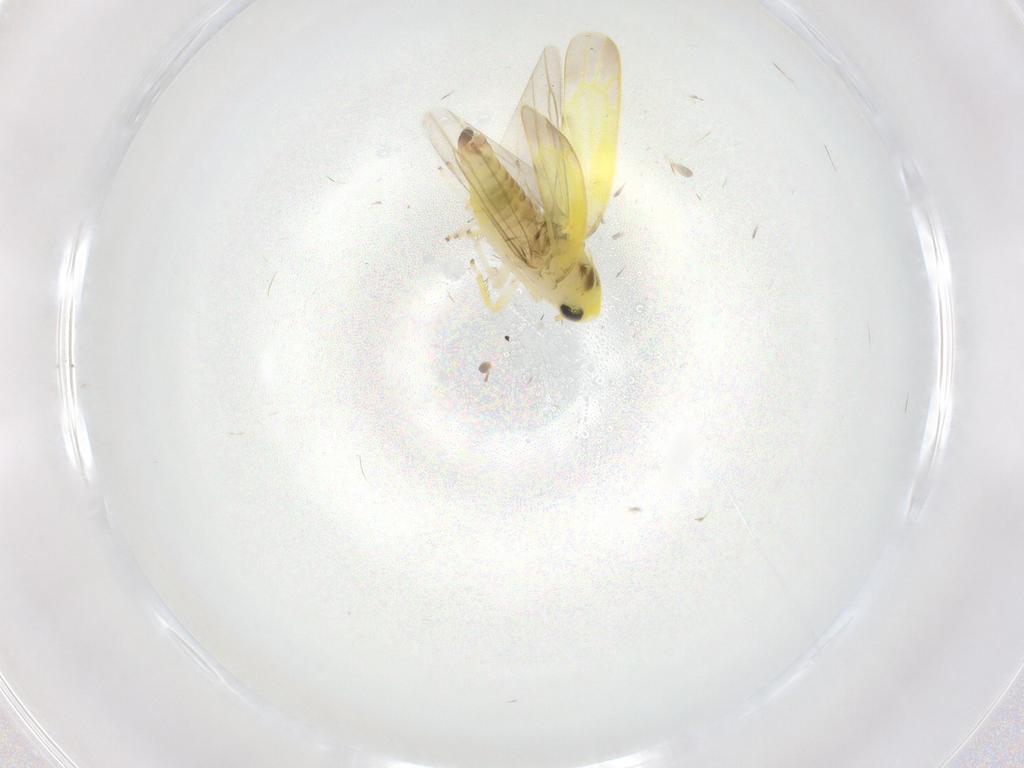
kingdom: Animalia
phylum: Arthropoda
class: Insecta
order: Hemiptera
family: Cicadellidae
